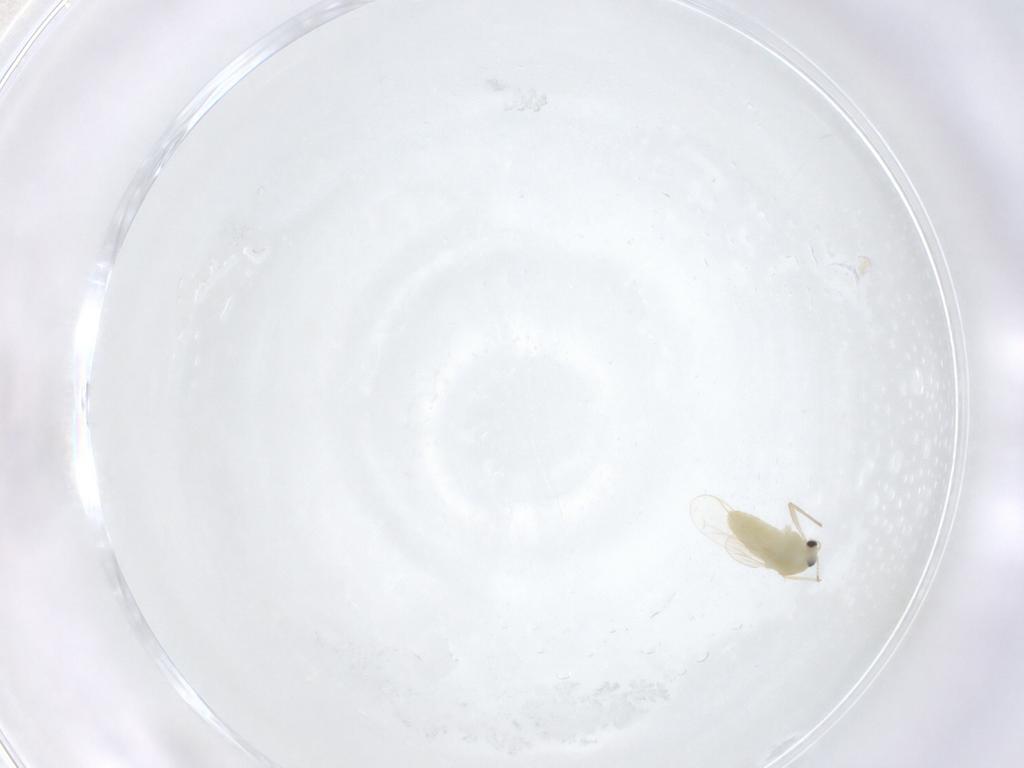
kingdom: Animalia
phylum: Arthropoda
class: Insecta
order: Diptera
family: Chironomidae
